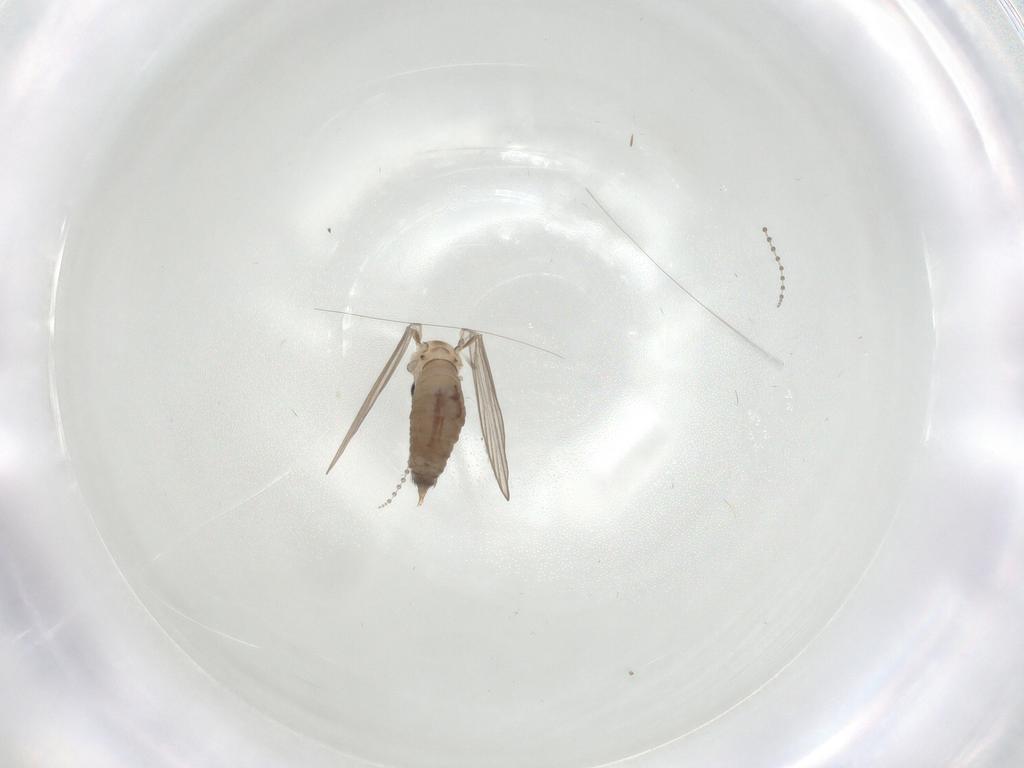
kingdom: Animalia
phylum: Arthropoda
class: Insecta
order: Diptera
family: Psychodidae
